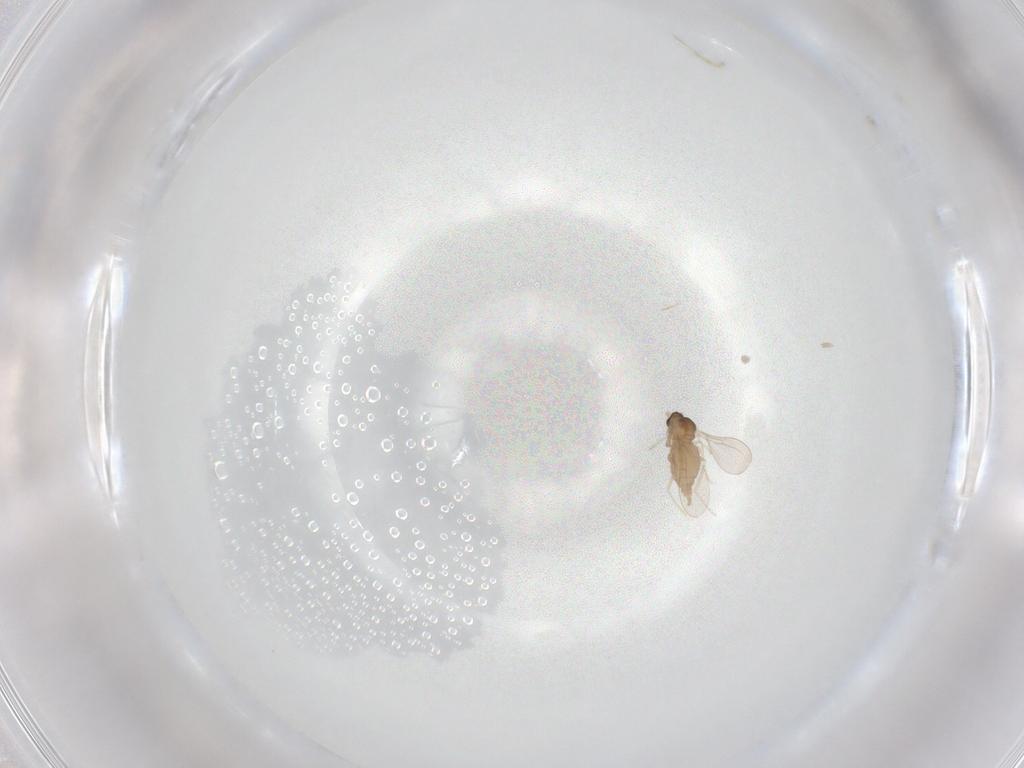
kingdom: Animalia
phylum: Arthropoda
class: Insecta
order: Diptera
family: Cecidomyiidae
